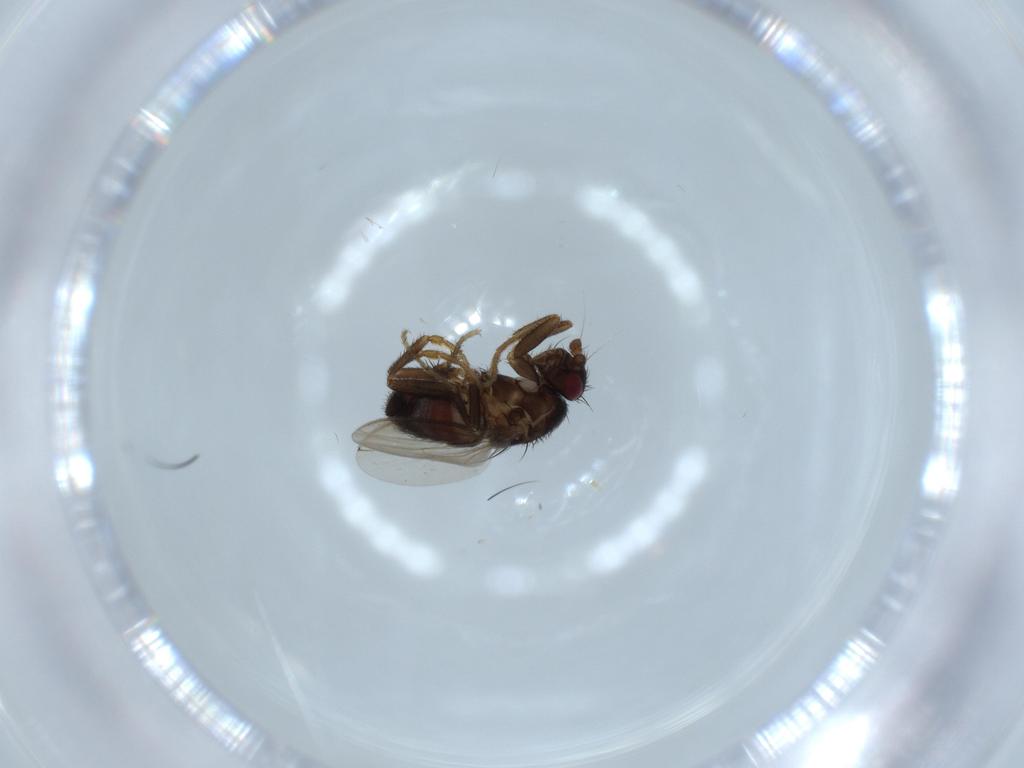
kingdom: Animalia
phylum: Arthropoda
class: Insecta
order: Diptera
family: Sphaeroceridae
